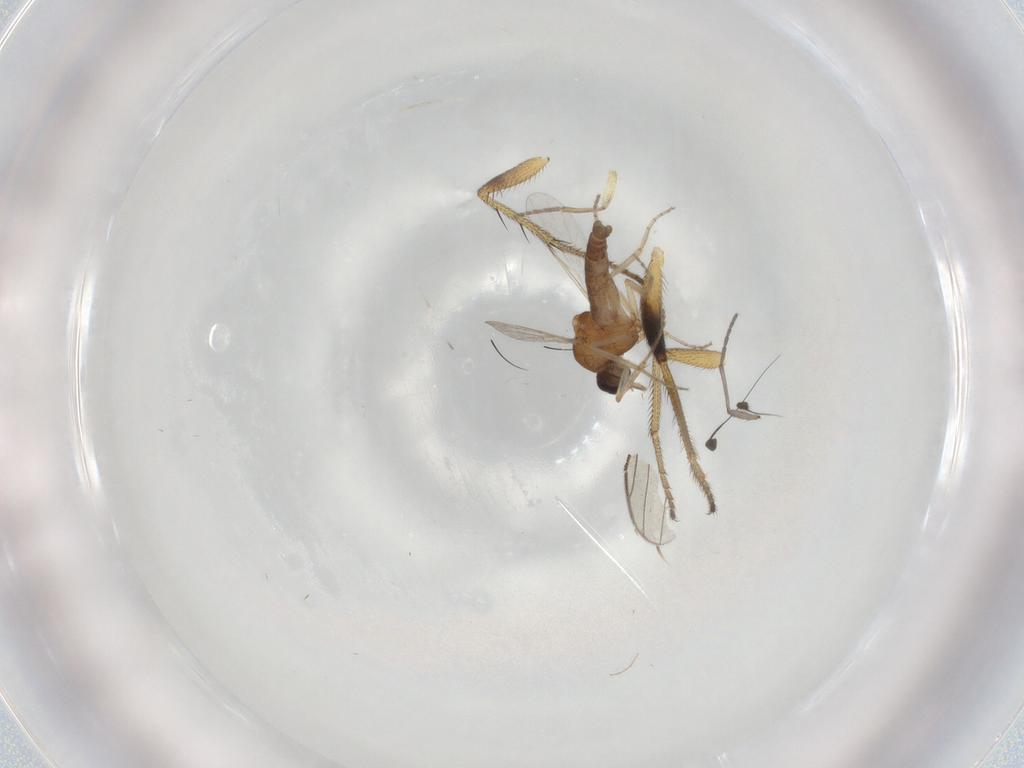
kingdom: Animalia
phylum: Arthropoda
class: Insecta
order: Diptera
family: Ceratopogonidae
